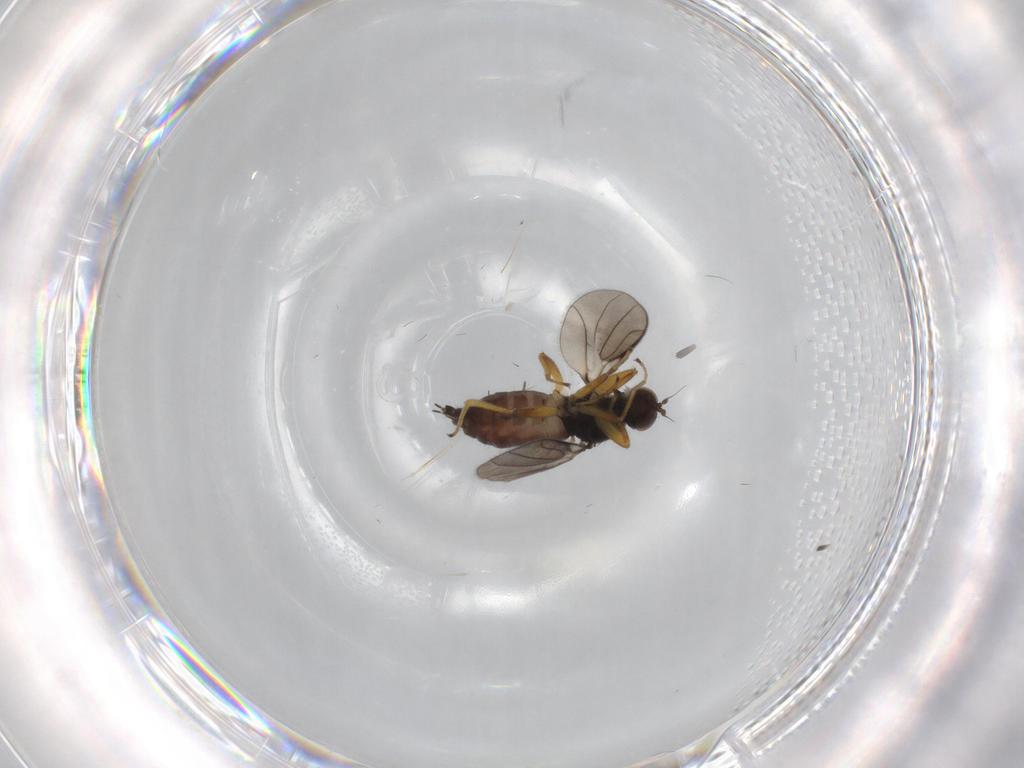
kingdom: Animalia
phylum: Arthropoda
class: Insecta
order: Diptera
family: Hybotidae
